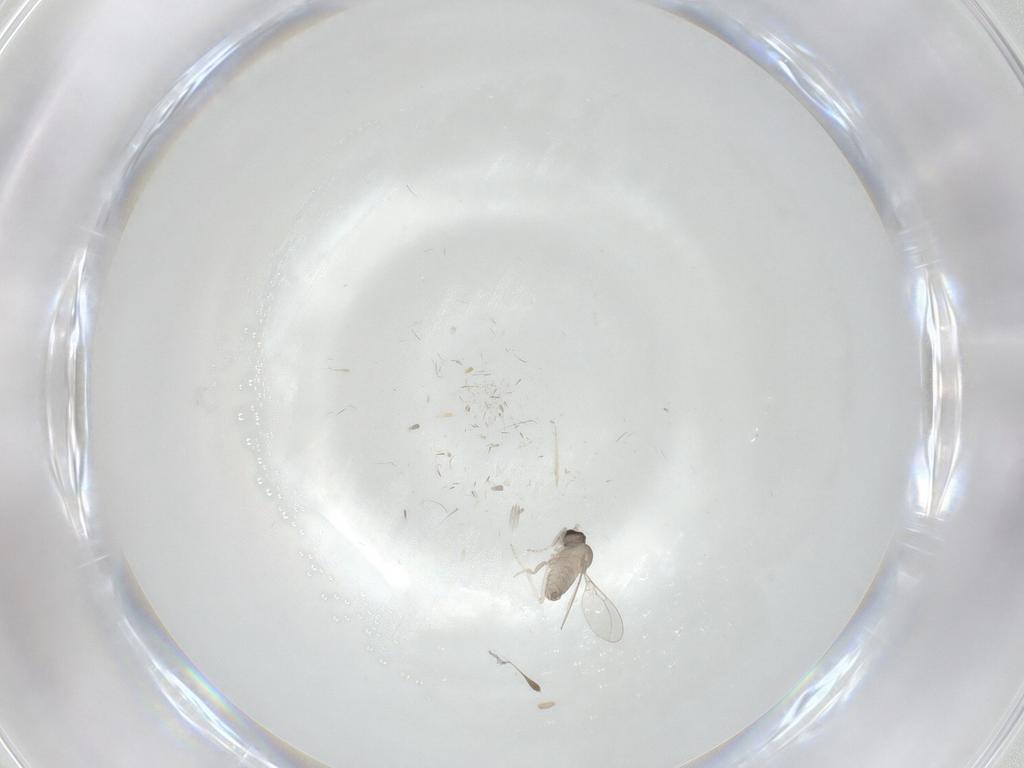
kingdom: Animalia
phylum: Arthropoda
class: Insecta
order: Diptera
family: Cecidomyiidae
